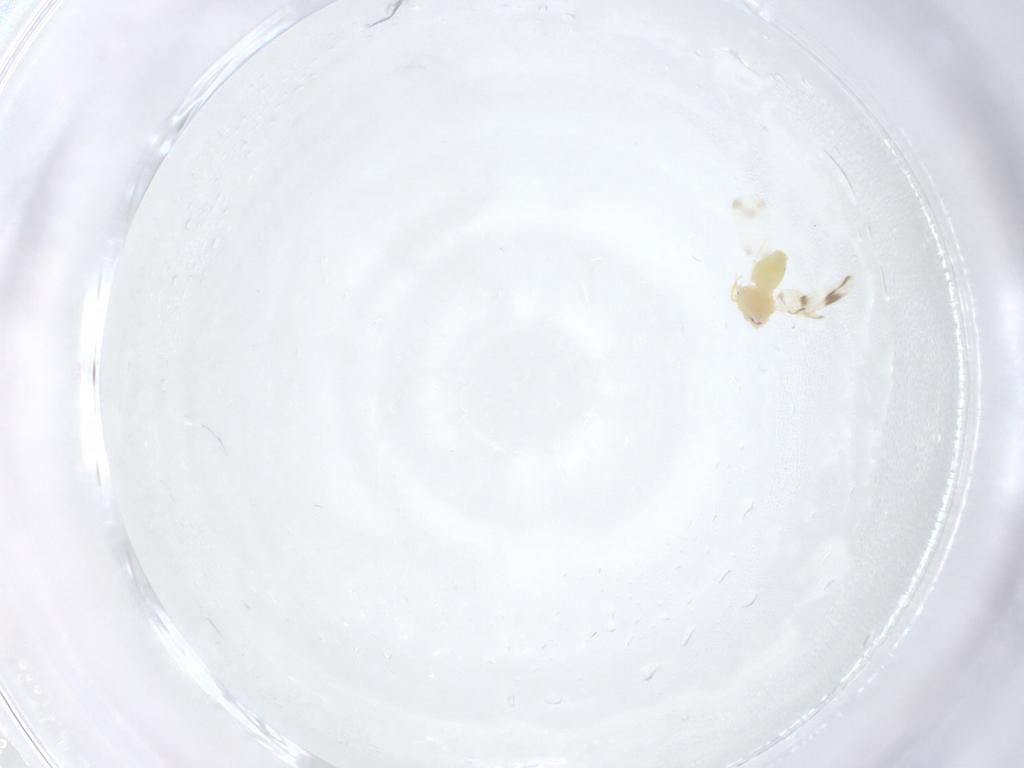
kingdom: Animalia
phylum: Arthropoda
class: Insecta
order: Hemiptera
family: Aleyrodidae
